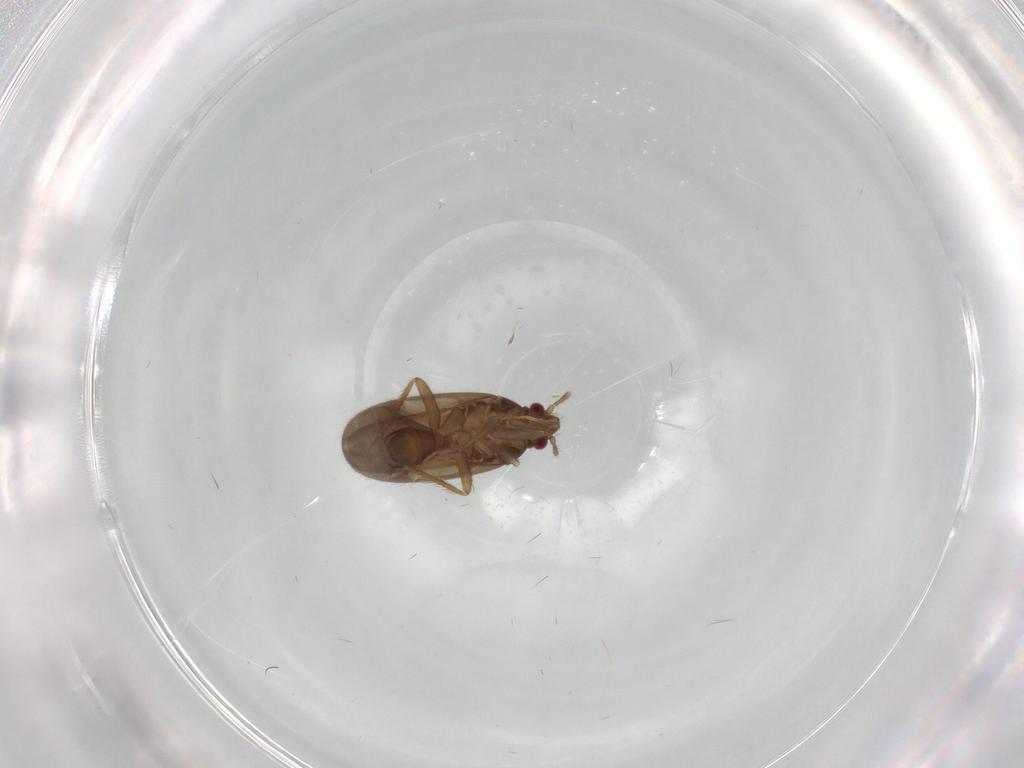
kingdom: Animalia
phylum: Arthropoda
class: Insecta
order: Hemiptera
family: Ceratocombidae
